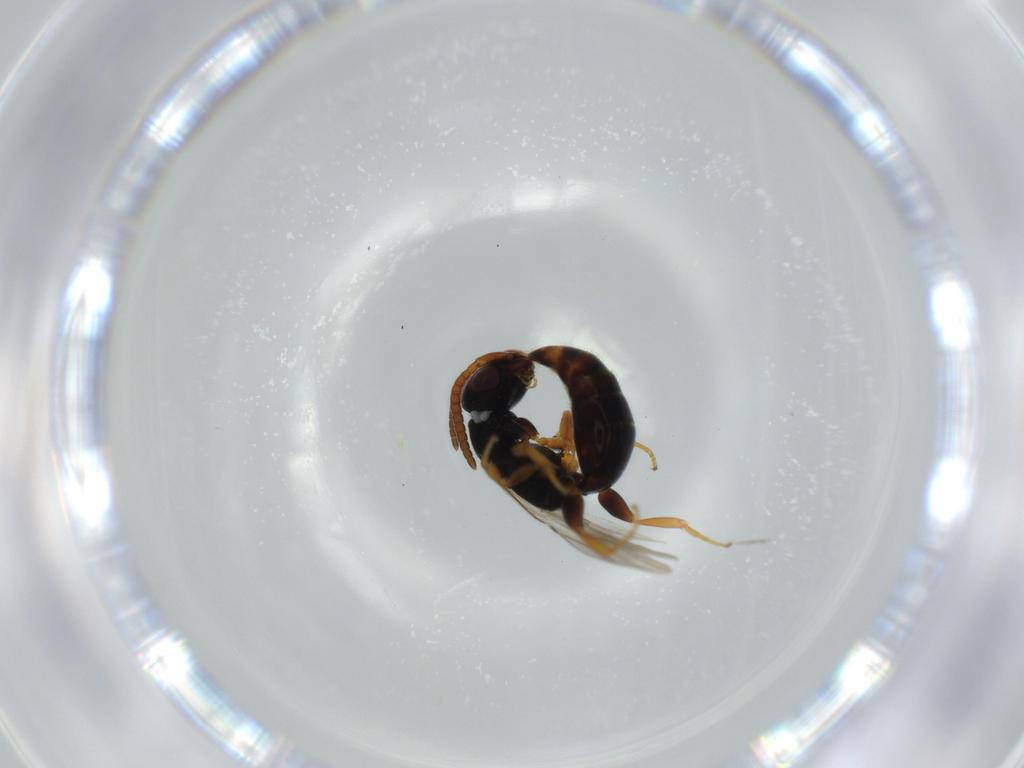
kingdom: Animalia
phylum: Arthropoda
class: Insecta
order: Hymenoptera
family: Bethylidae
